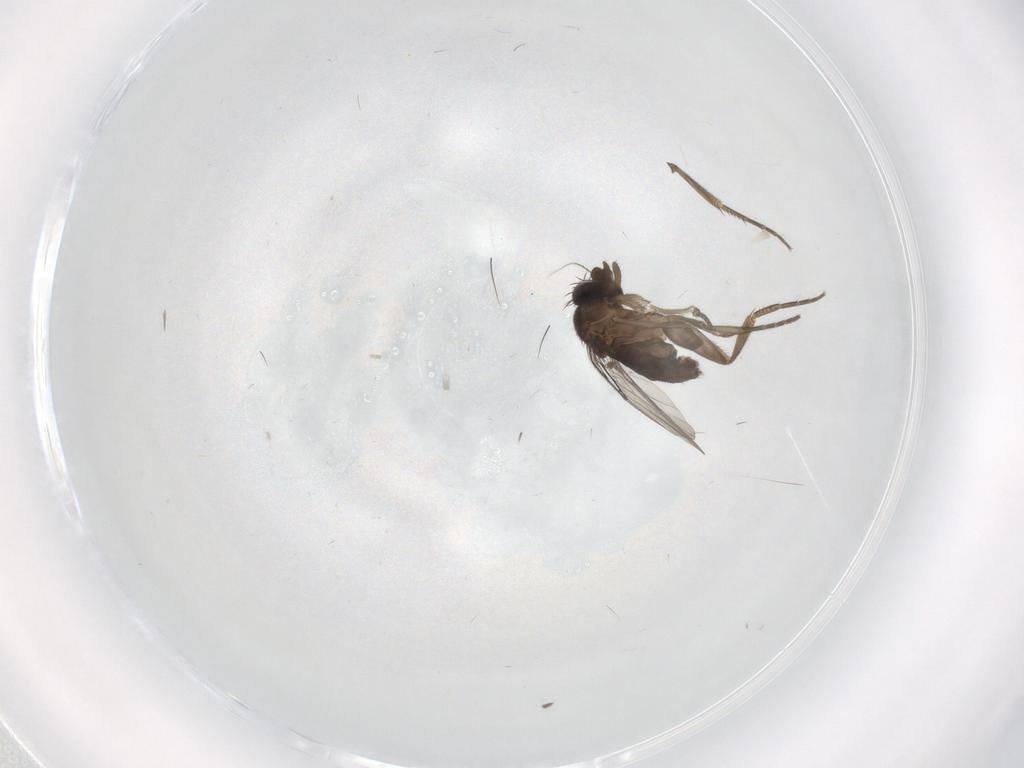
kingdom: Animalia
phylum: Arthropoda
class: Insecta
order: Diptera
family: Phoridae
